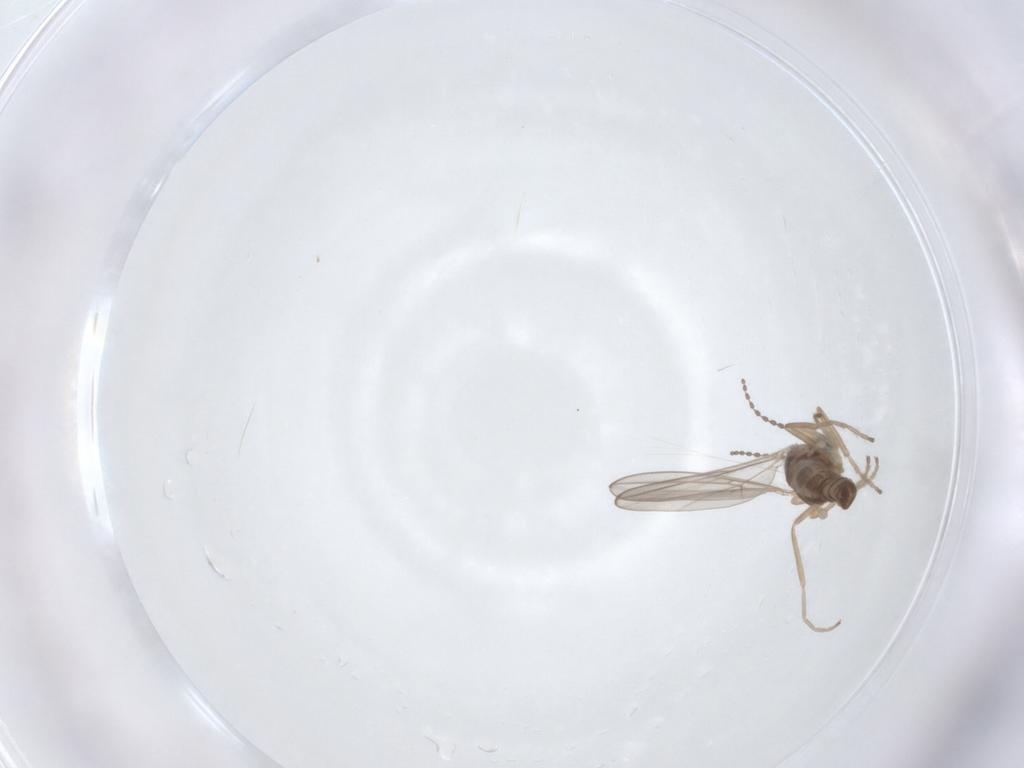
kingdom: Animalia
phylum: Arthropoda
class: Insecta
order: Diptera
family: Cecidomyiidae
